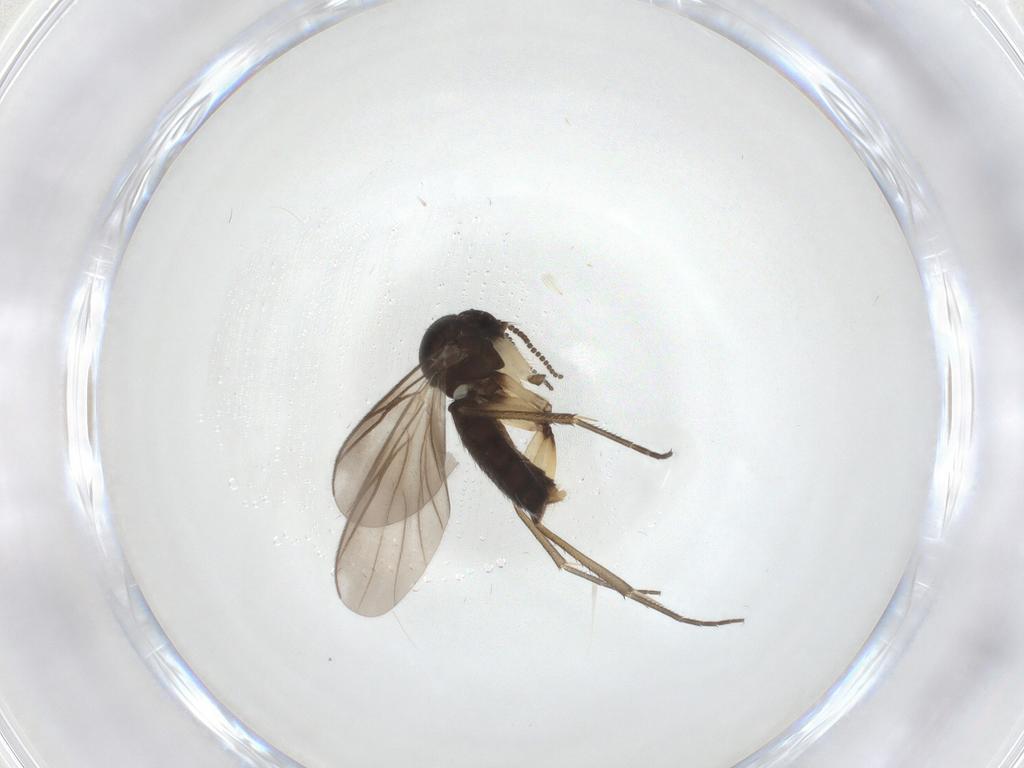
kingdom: Animalia
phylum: Arthropoda
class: Insecta
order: Diptera
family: Mycetophilidae
